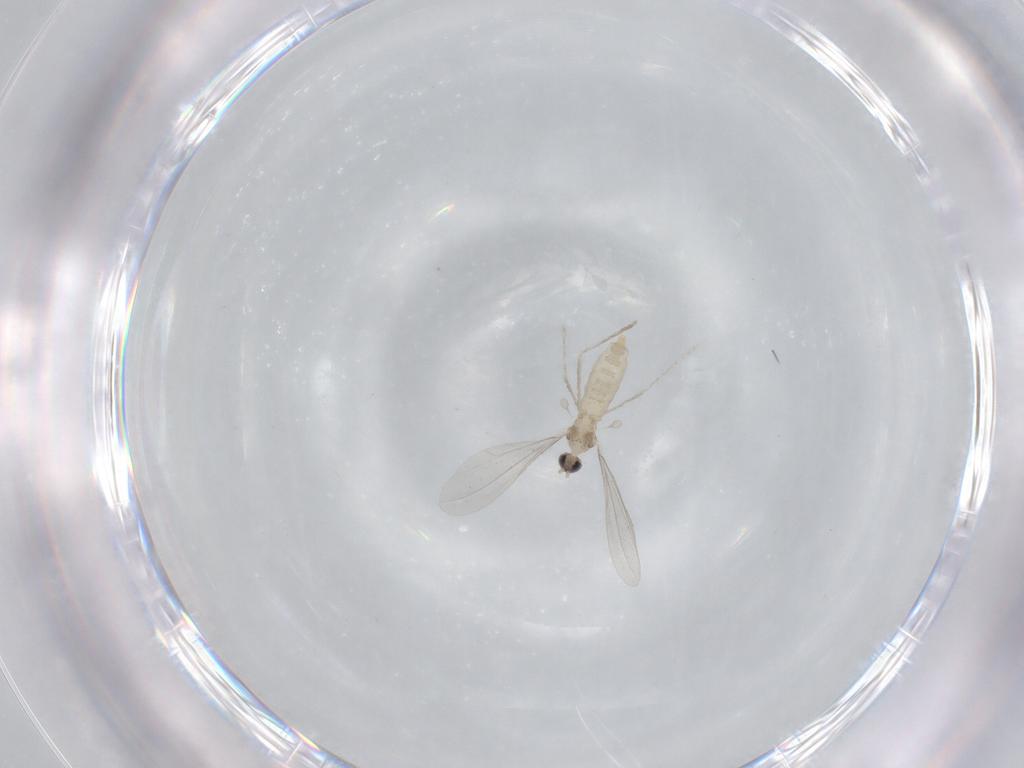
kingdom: Animalia
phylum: Arthropoda
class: Insecta
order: Diptera
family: Cecidomyiidae
